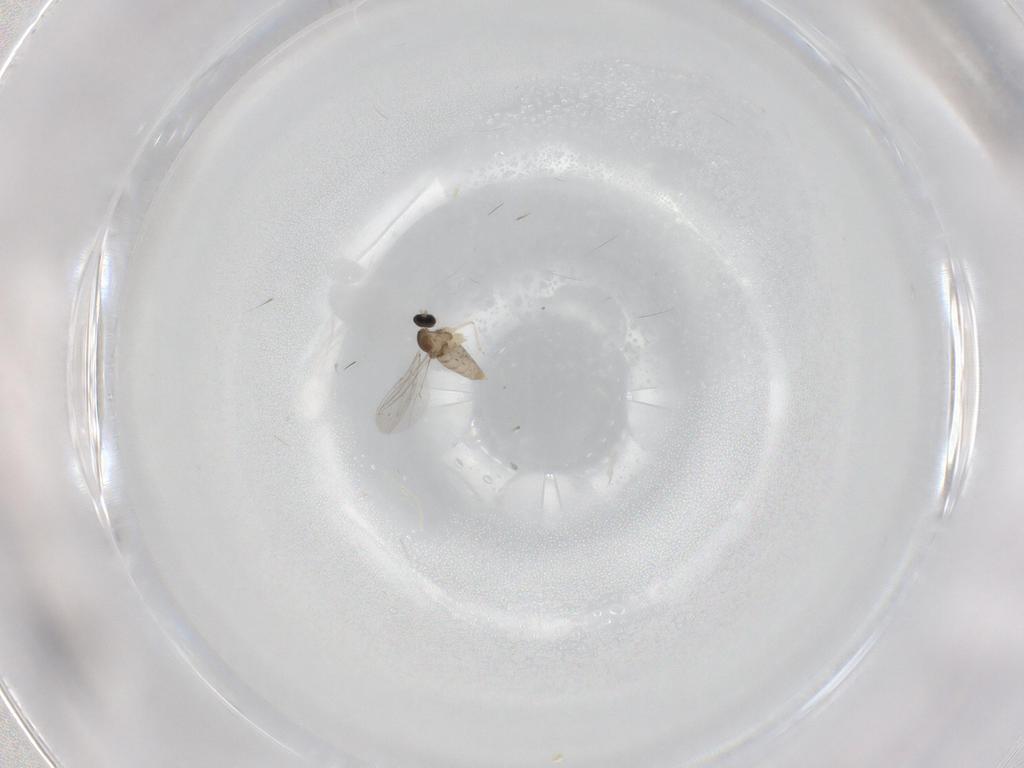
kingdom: Animalia
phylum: Arthropoda
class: Insecta
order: Diptera
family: Cecidomyiidae
